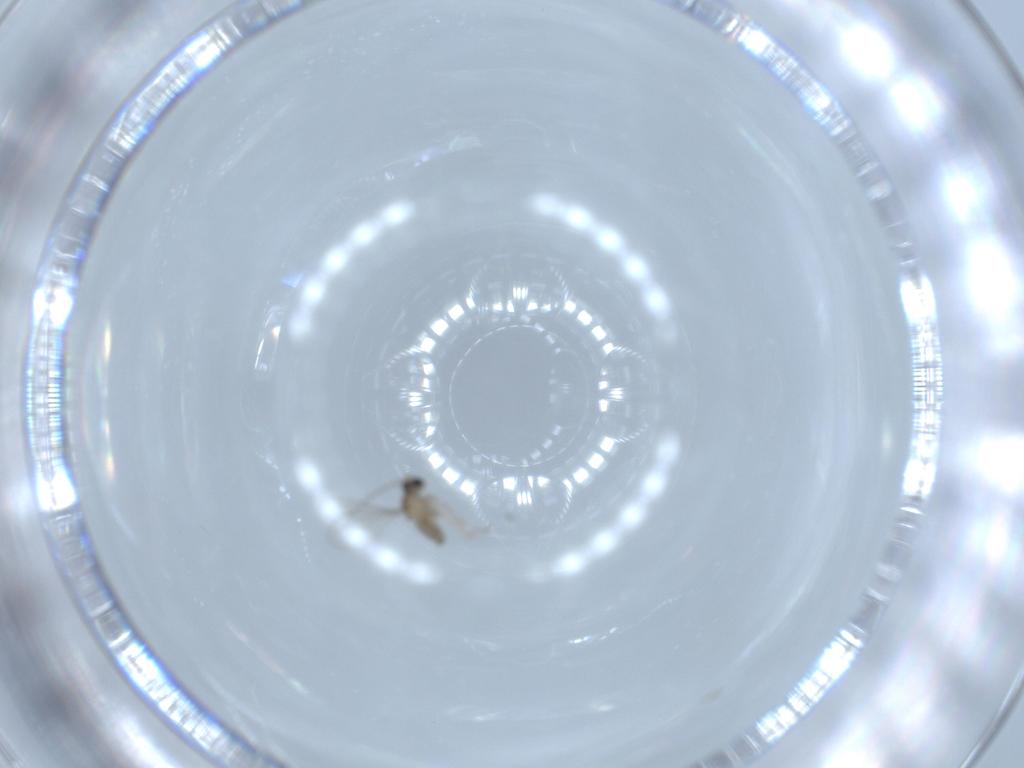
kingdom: Animalia
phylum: Arthropoda
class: Insecta
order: Diptera
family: Cecidomyiidae
